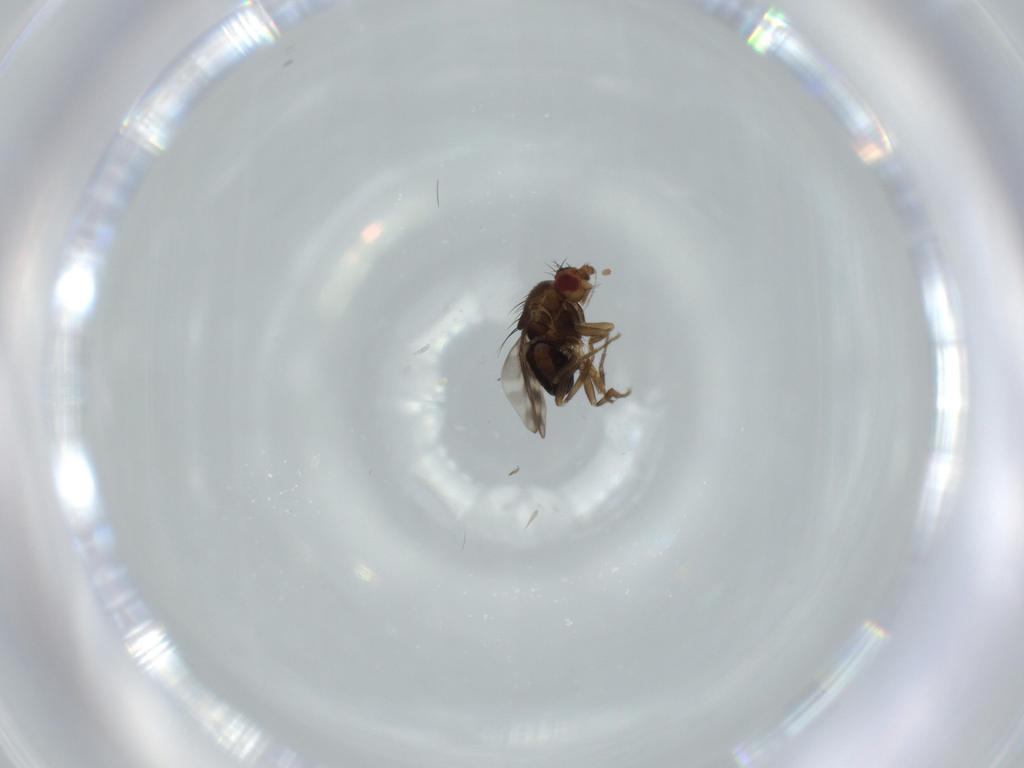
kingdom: Animalia
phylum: Arthropoda
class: Insecta
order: Diptera
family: Sphaeroceridae
